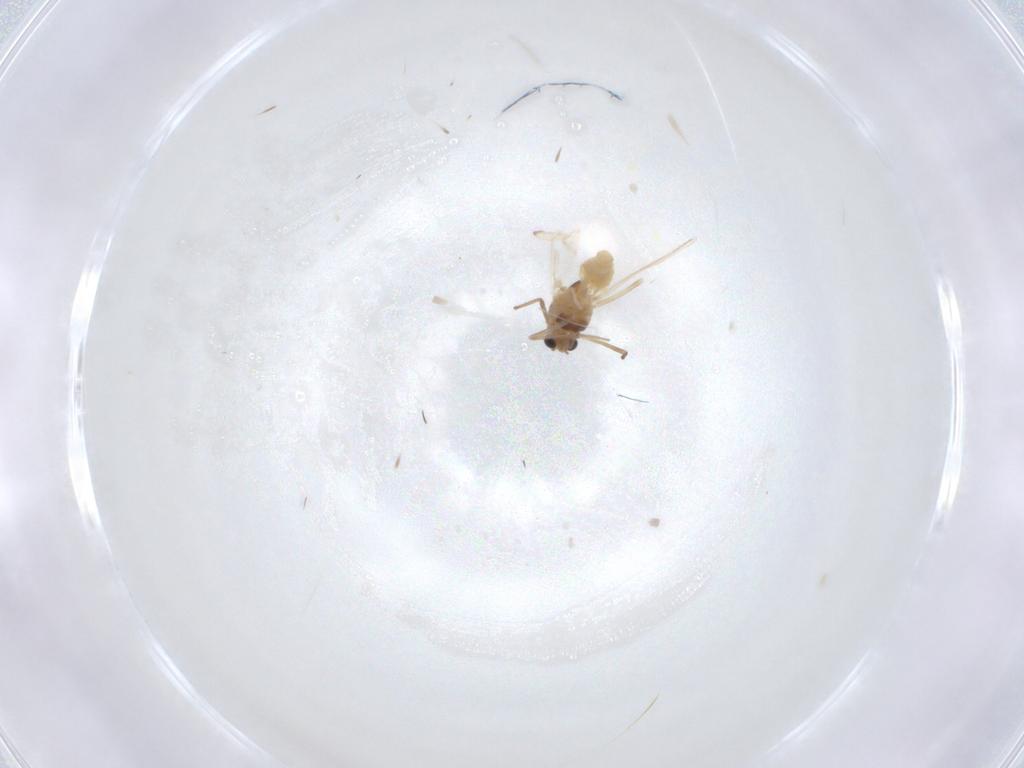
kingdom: Animalia
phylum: Arthropoda
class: Insecta
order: Diptera
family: Chironomidae
